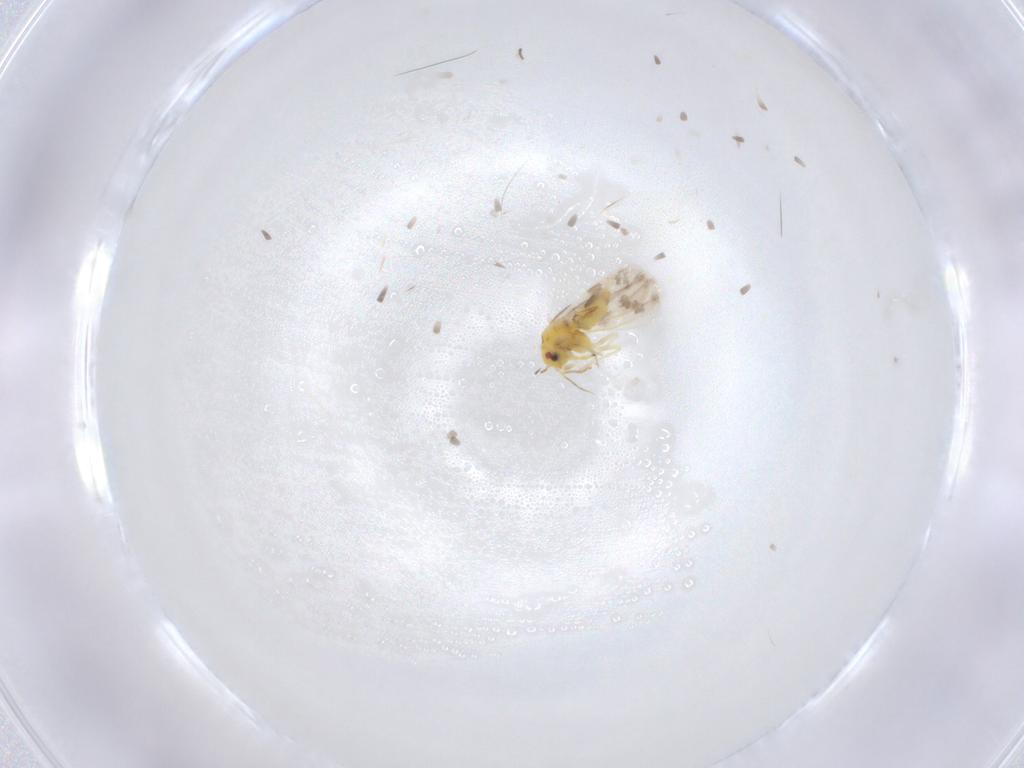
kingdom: Animalia
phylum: Arthropoda
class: Insecta
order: Hemiptera
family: Aleyrodidae
